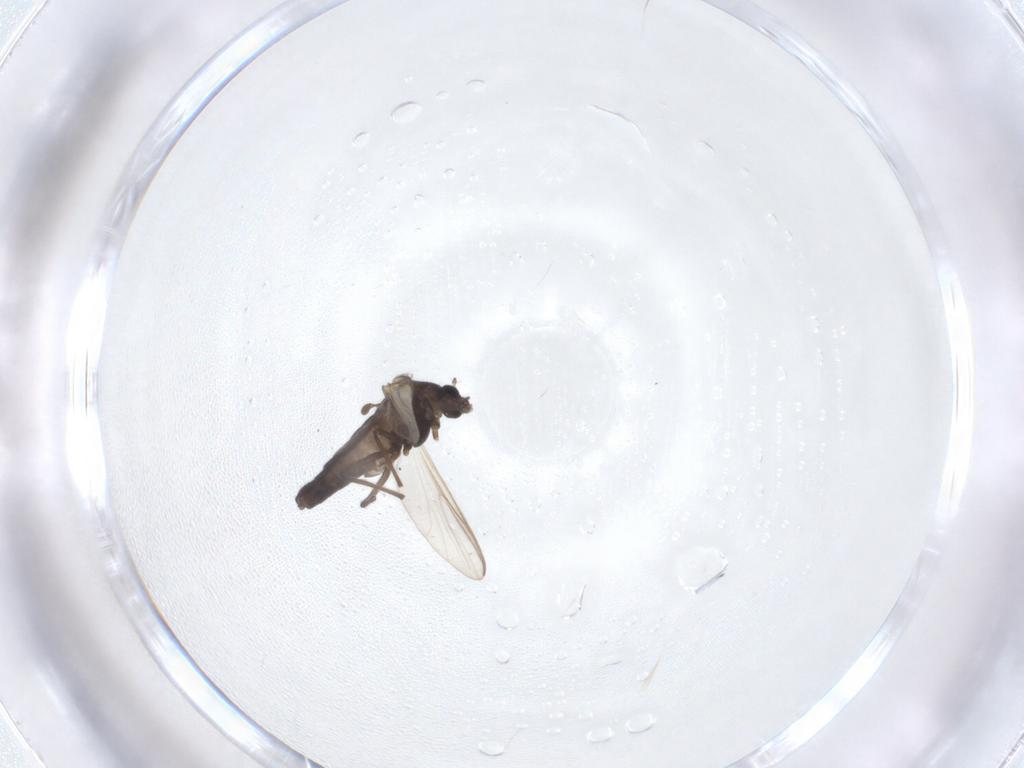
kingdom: Animalia
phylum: Arthropoda
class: Insecta
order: Diptera
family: Chironomidae
